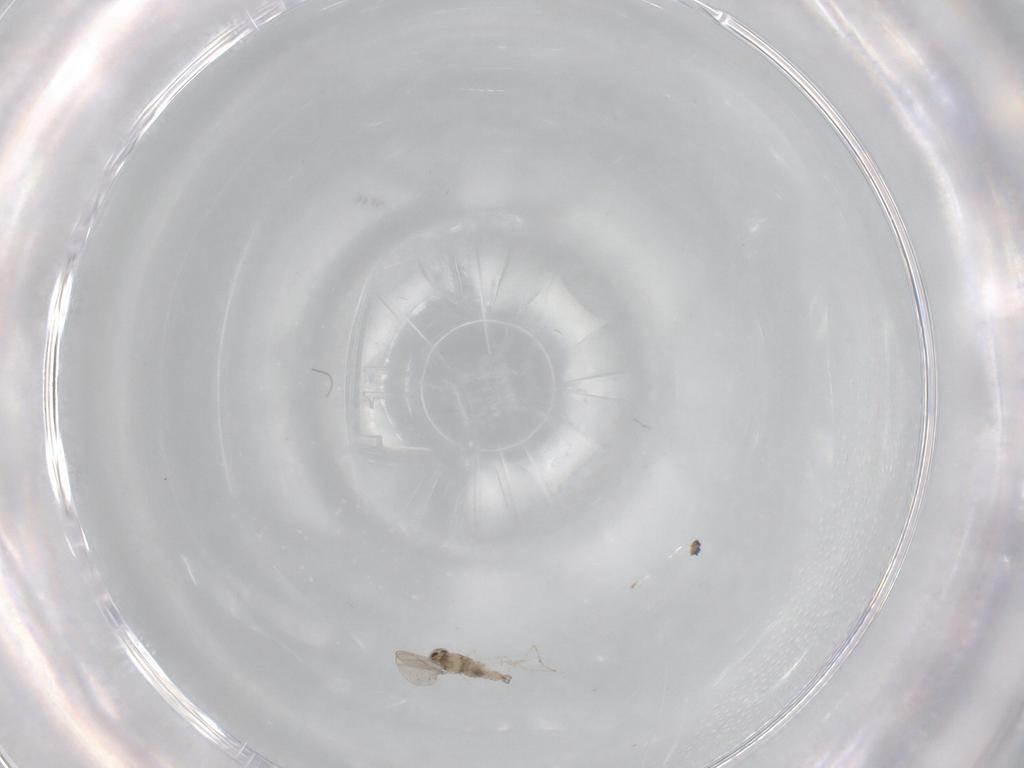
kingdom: Animalia
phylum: Arthropoda
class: Insecta
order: Diptera
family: Cecidomyiidae
